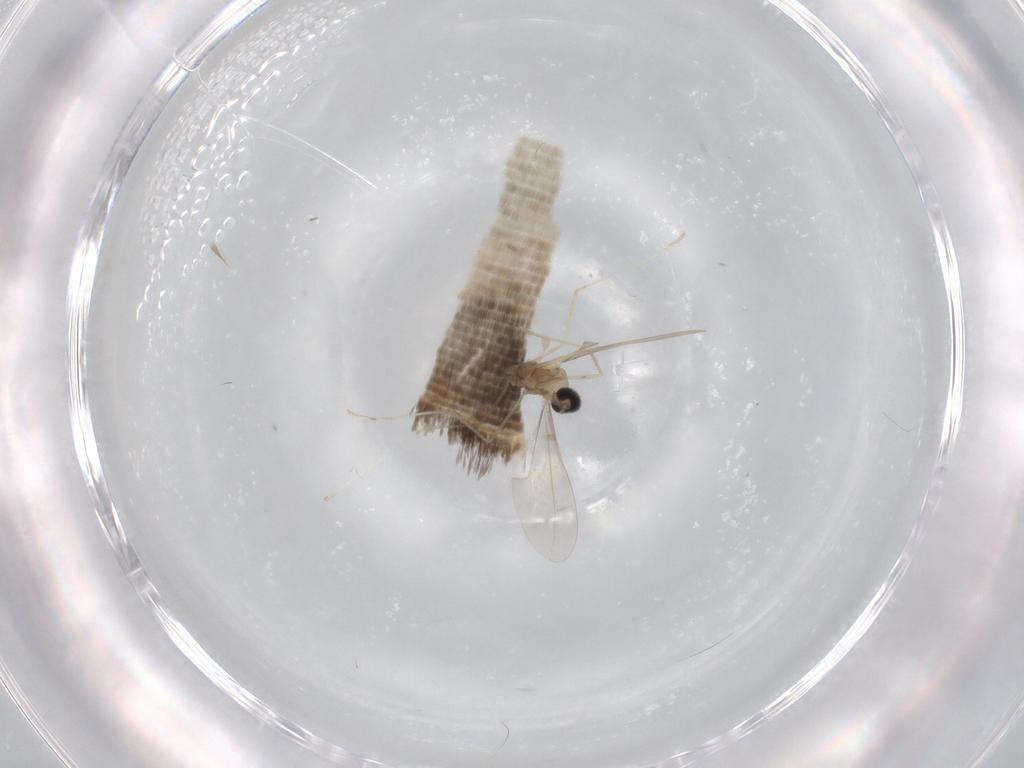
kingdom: Animalia
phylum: Arthropoda
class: Insecta
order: Diptera
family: Cecidomyiidae
